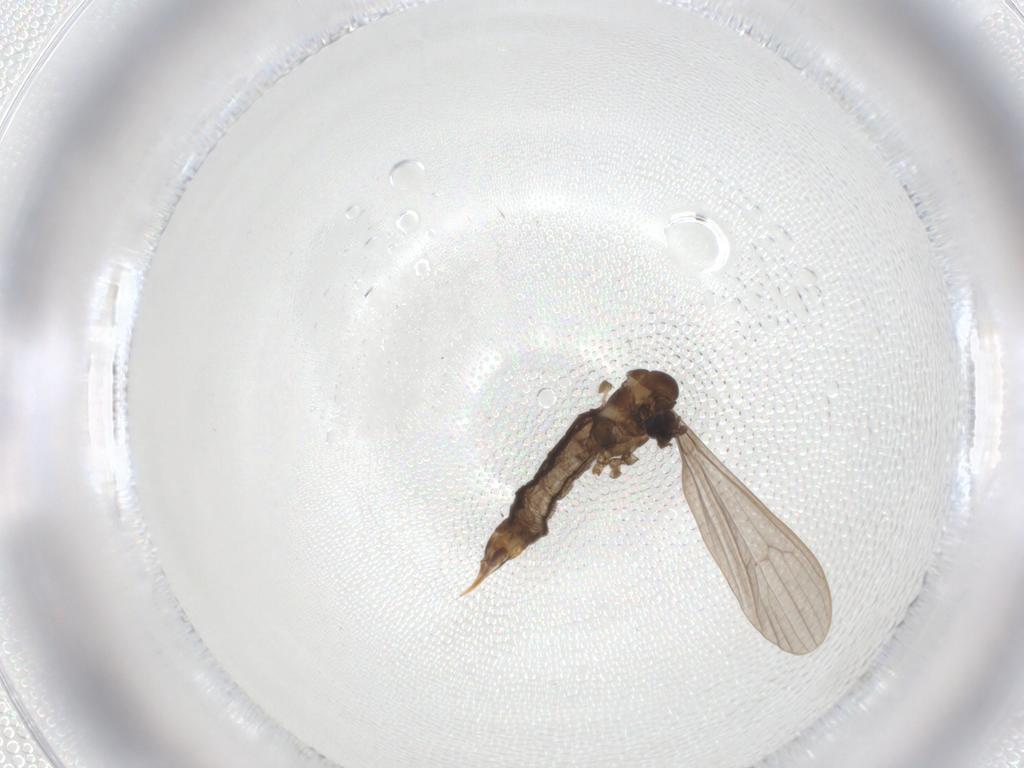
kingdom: Animalia
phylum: Arthropoda
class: Insecta
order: Diptera
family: Limoniidae
